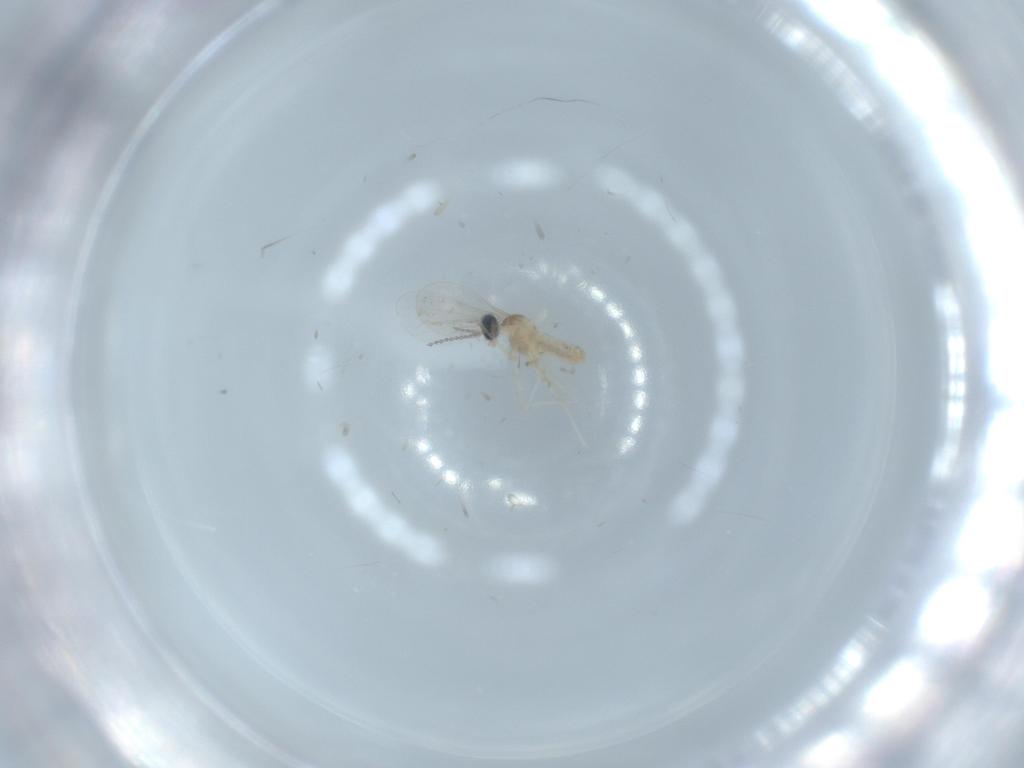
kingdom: Animalia
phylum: Arthropoda
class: Insecta
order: Diptera
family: Cecidomyiidae
